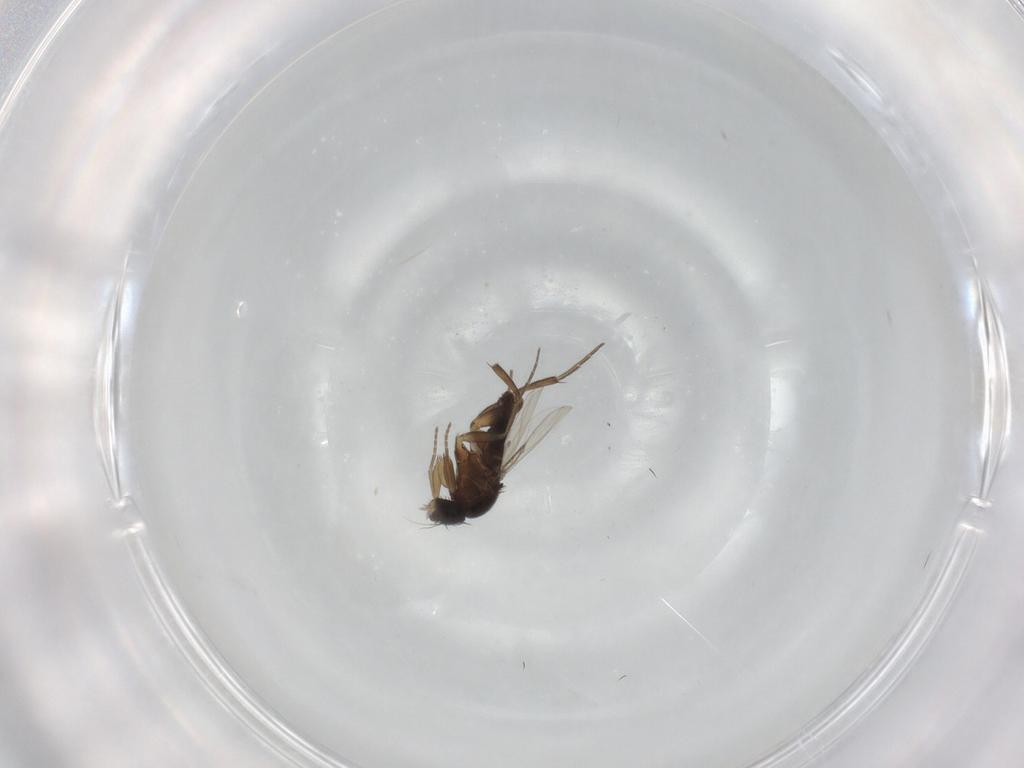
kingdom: Animalia
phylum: Arthropoda
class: Insecta
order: Diptera
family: Phoridae
